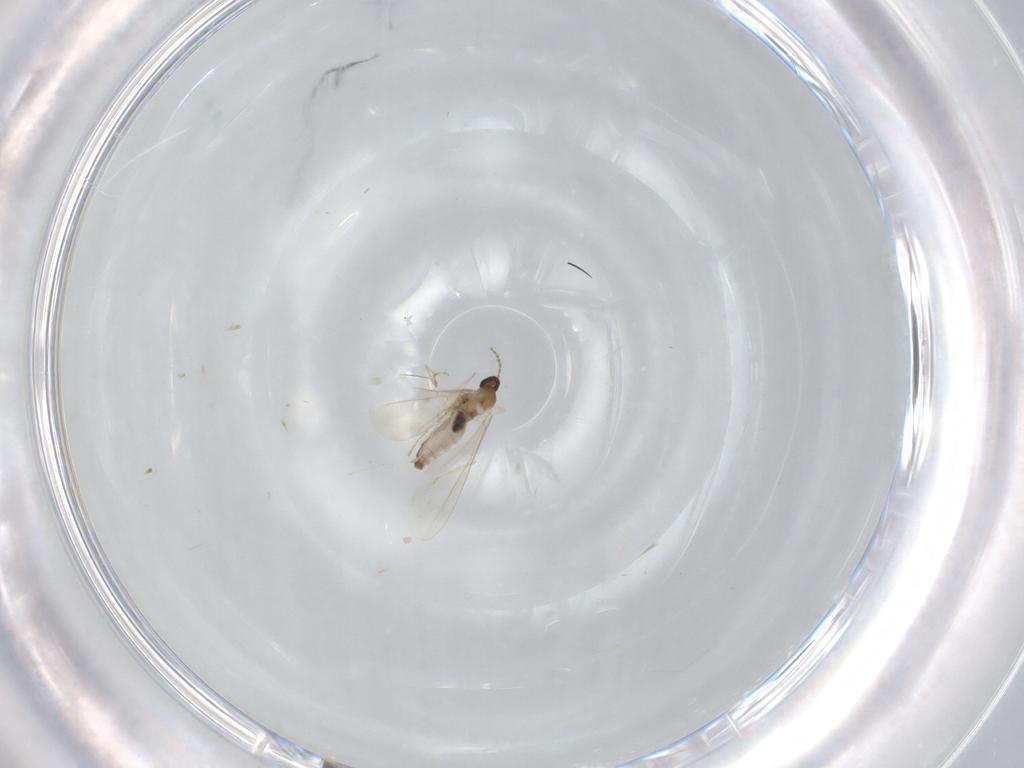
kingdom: Animalia
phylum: Arthropoda
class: Insecta
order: Diptera
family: Cecidomyiidae
